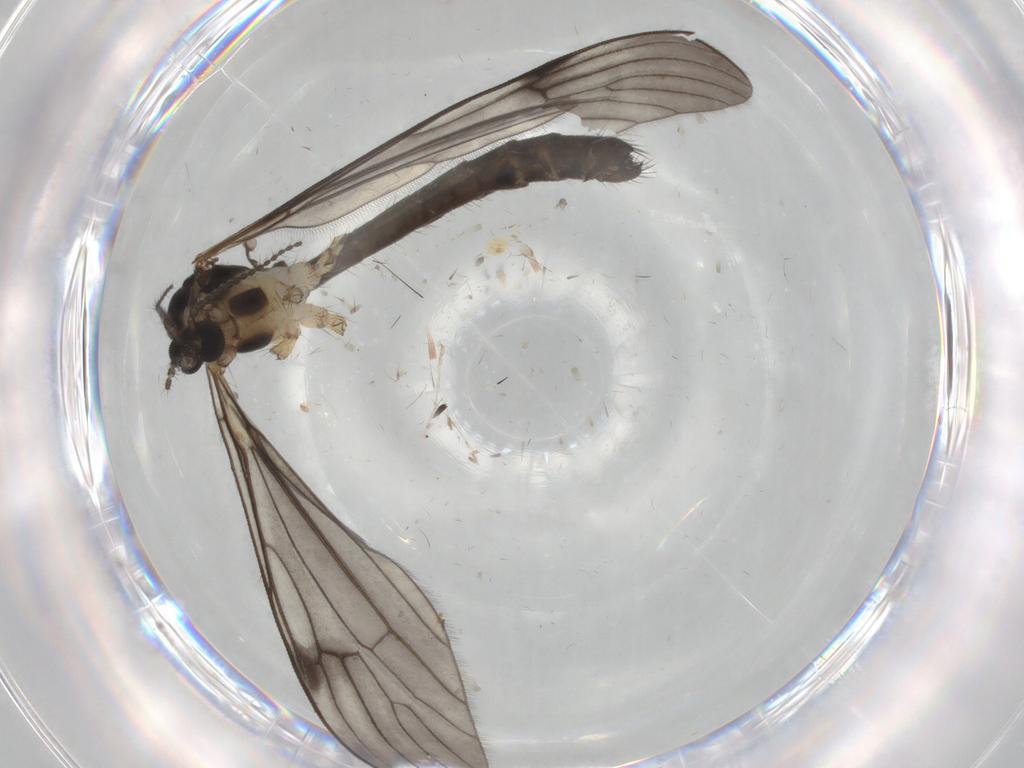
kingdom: Animalia
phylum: Arthropoda
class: Insecta
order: Diptera
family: Limoniidae
